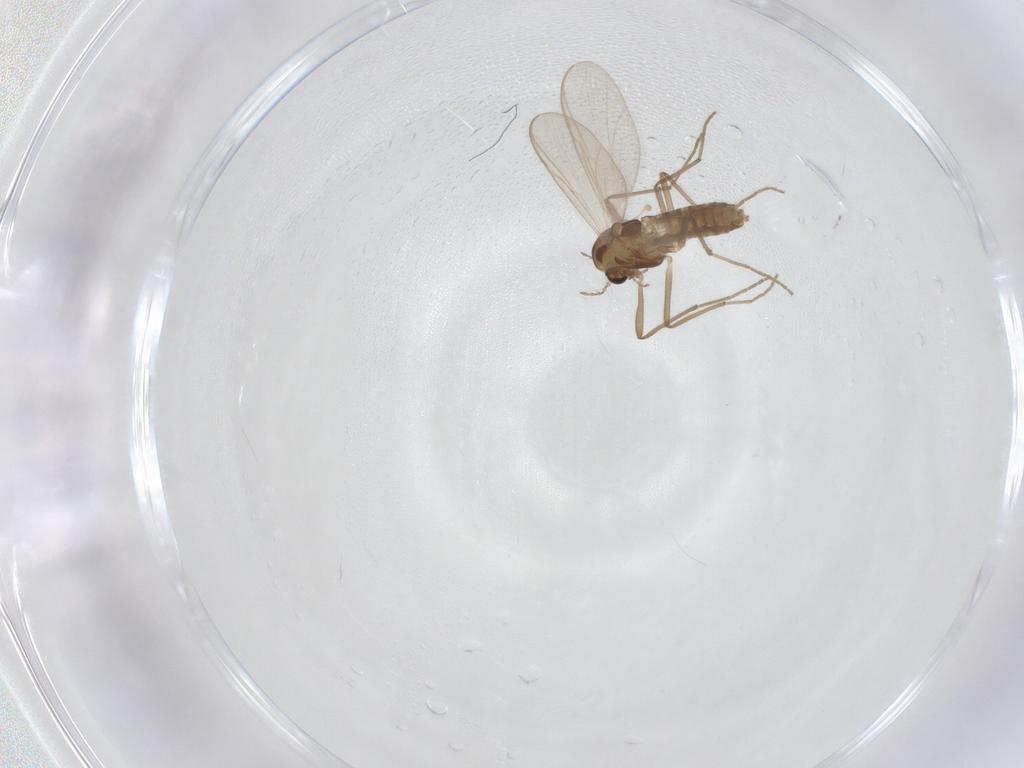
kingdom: Animalia
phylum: Arthropoda
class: Insecta
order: Diptera
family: Chironomidae
